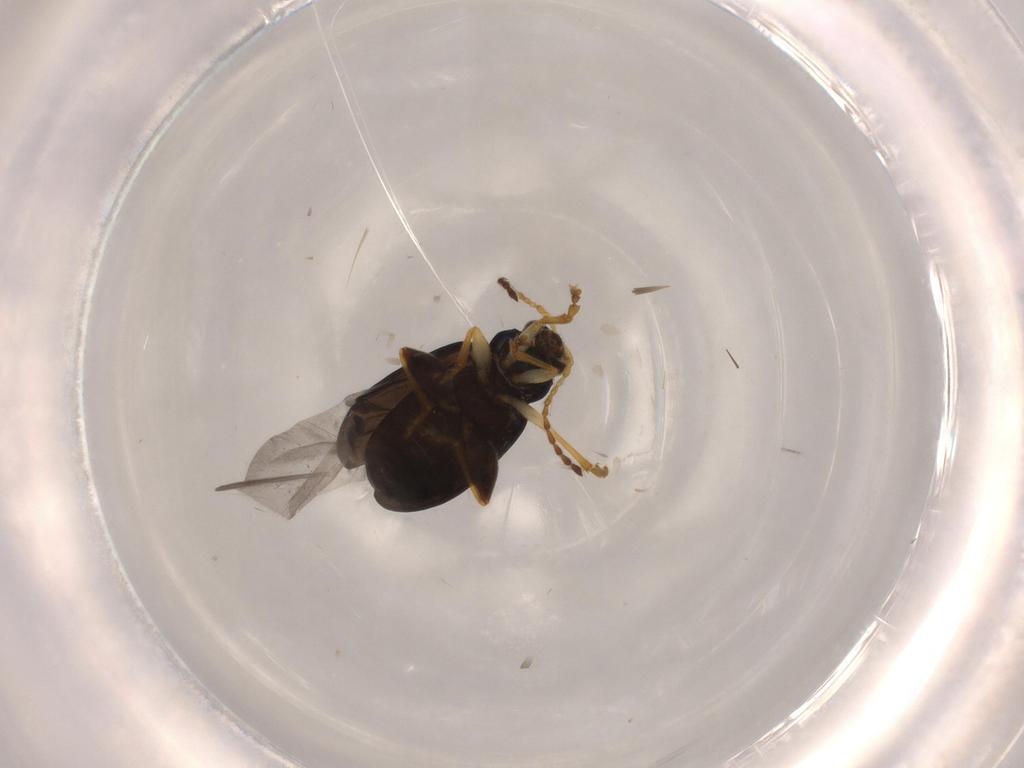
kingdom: Animalia
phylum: Arthropoda
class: Insecta
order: Coleoptera
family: Chrysomelidae
